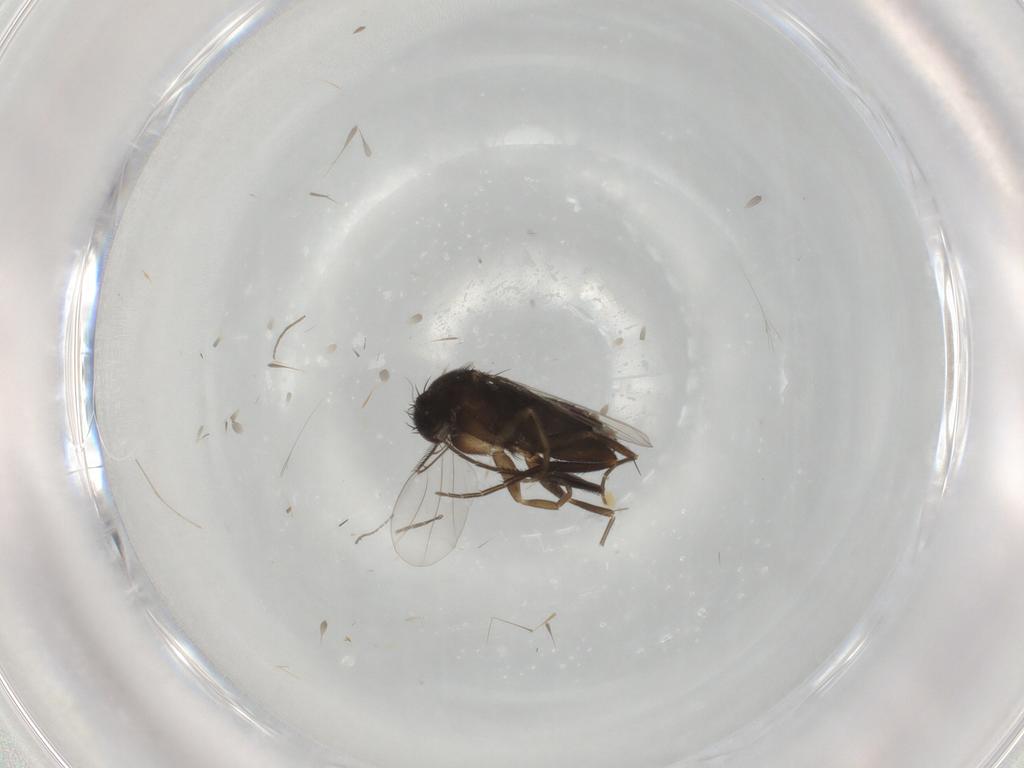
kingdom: Animalia
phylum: Arthropoda
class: Insecta
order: Diptera
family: Phoridae
